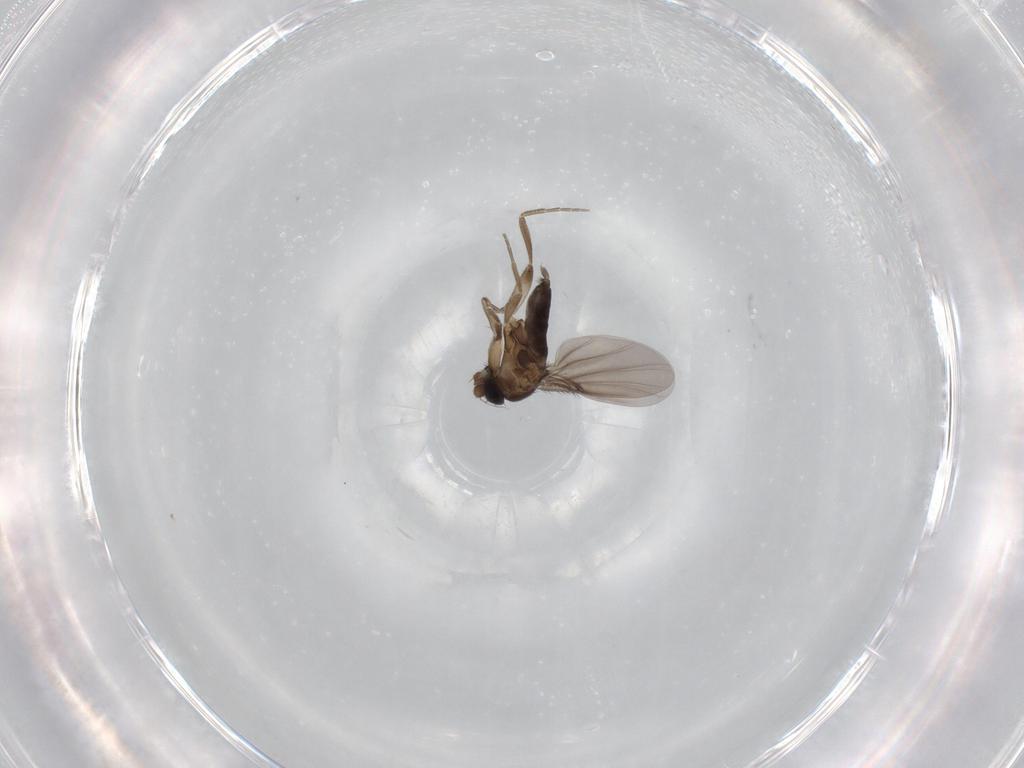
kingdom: Animalia
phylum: Arthropoda
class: Insecta
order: Diptera
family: Phoridae
